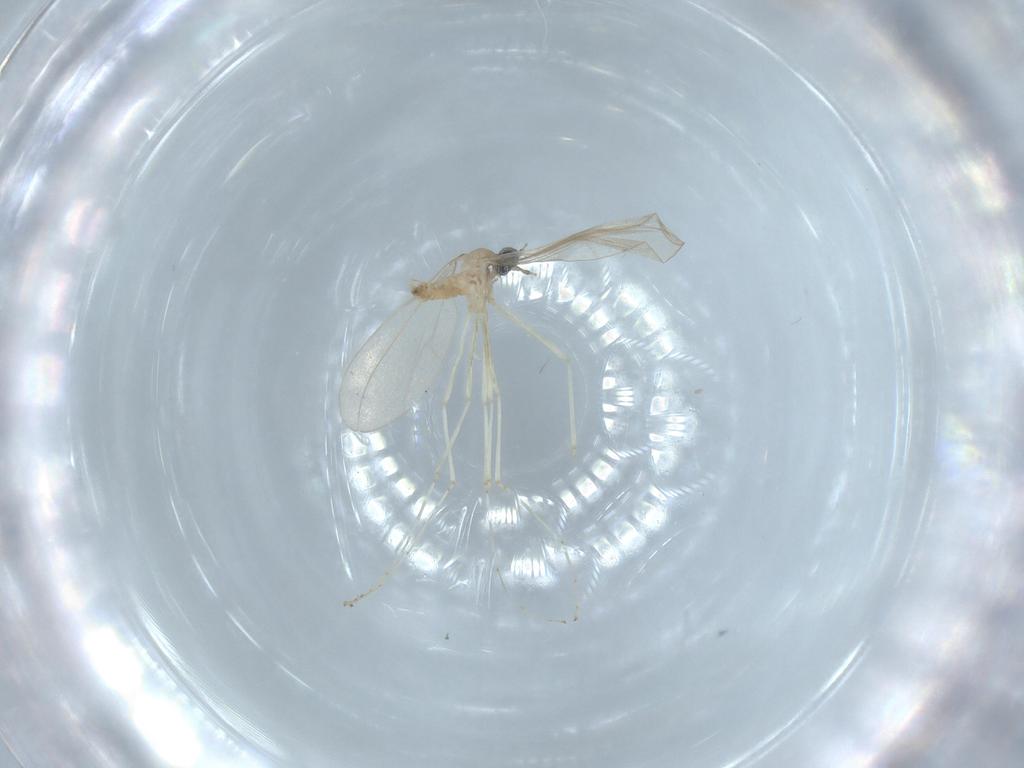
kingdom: Animalia
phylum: Arthropoda
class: Insecta
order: Diptera
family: Cecidomyiidae
